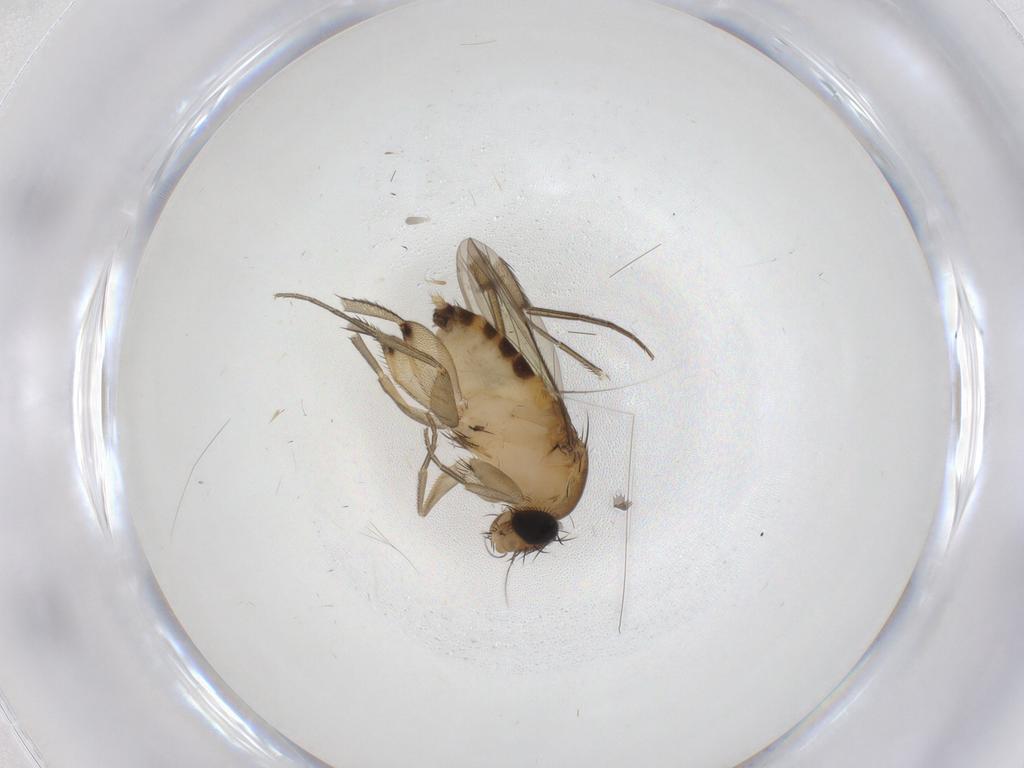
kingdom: Animalia
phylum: Arthropoda
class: Insecta
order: Diptera
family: Phoridae
